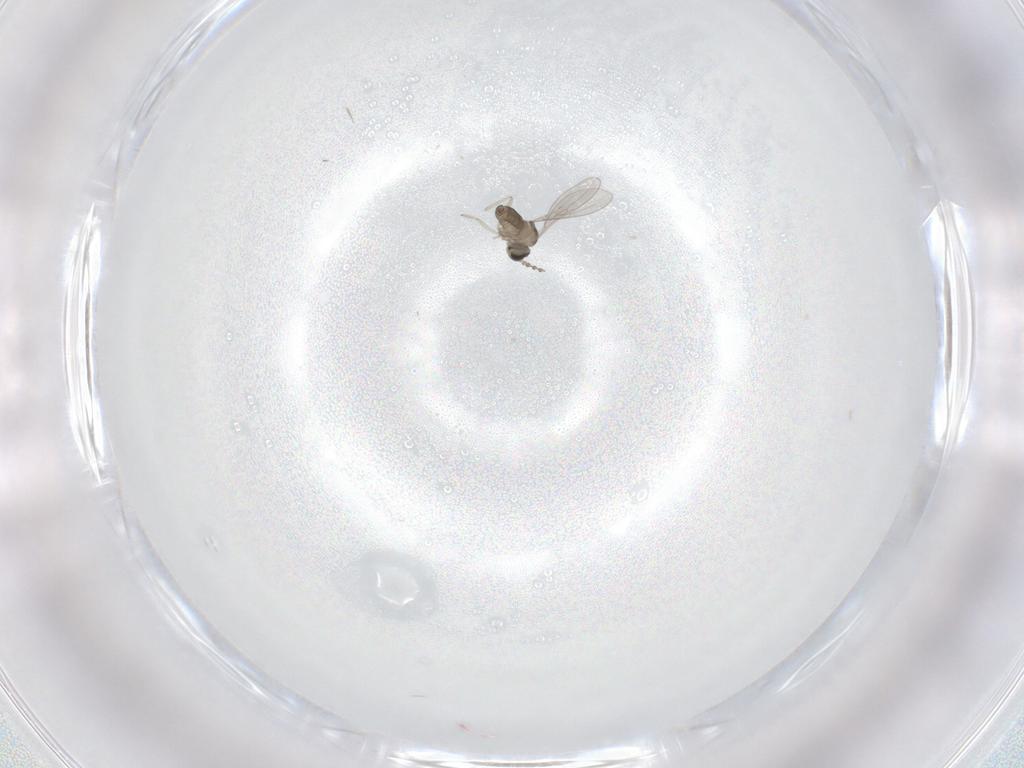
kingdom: Animalia
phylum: Arthropoda
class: Insecta
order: Diptera
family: Cecidomyiidae
